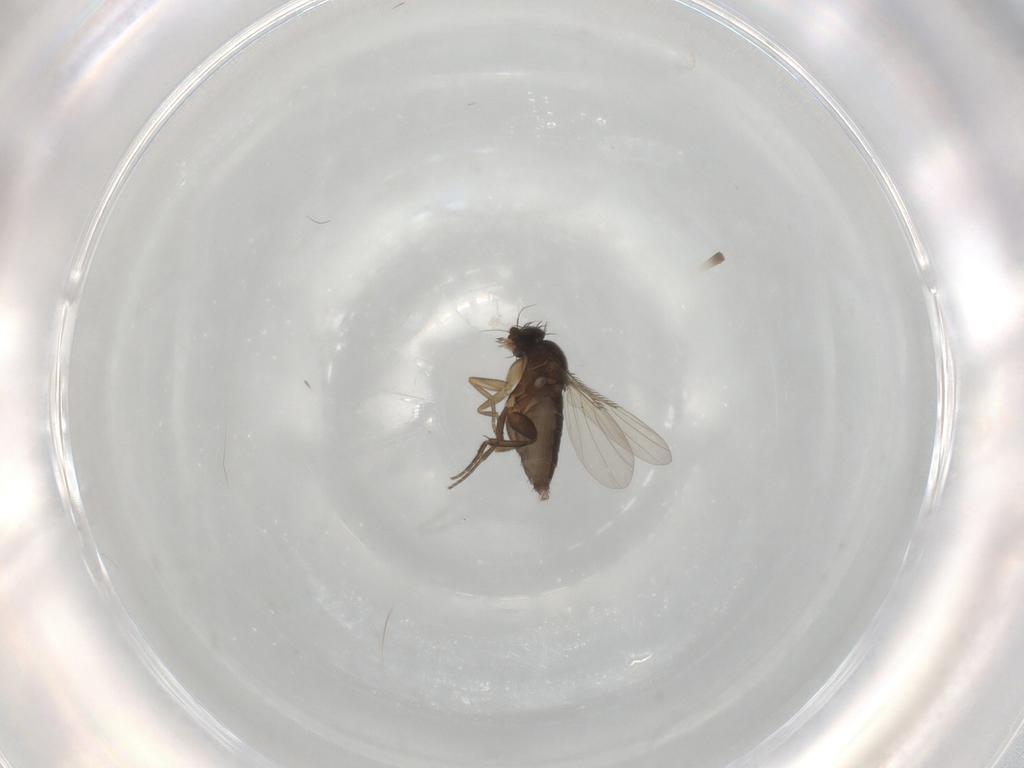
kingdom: Animalia
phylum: Arthropoda
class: Insecta
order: Diptera
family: Phoridae
